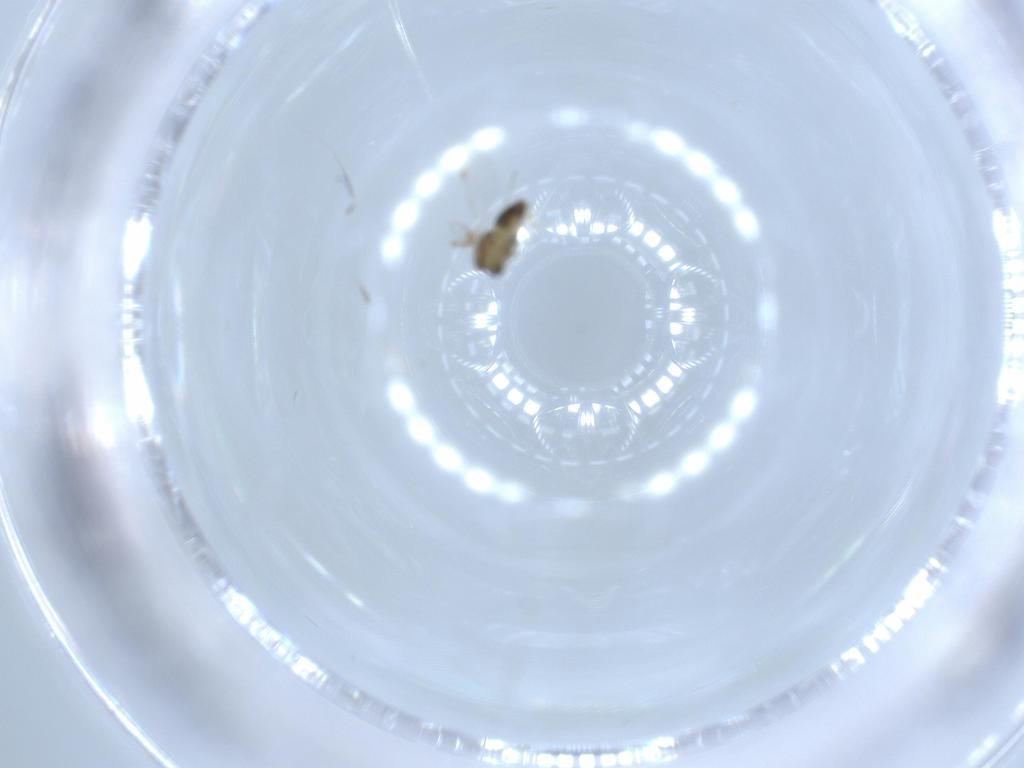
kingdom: Animalia
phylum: Arthropoda
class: Insecta
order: Diptera
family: Chironomidae
